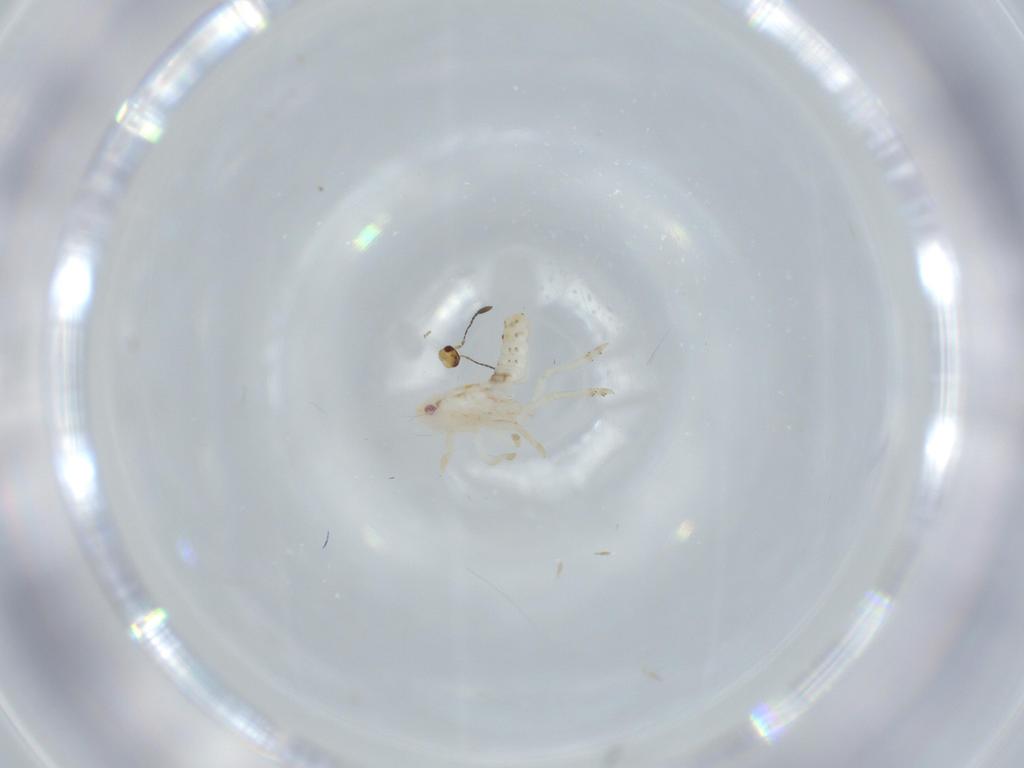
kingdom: Animalia
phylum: Arthropoda
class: Insecta
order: Hemiptera
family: Flatidae
